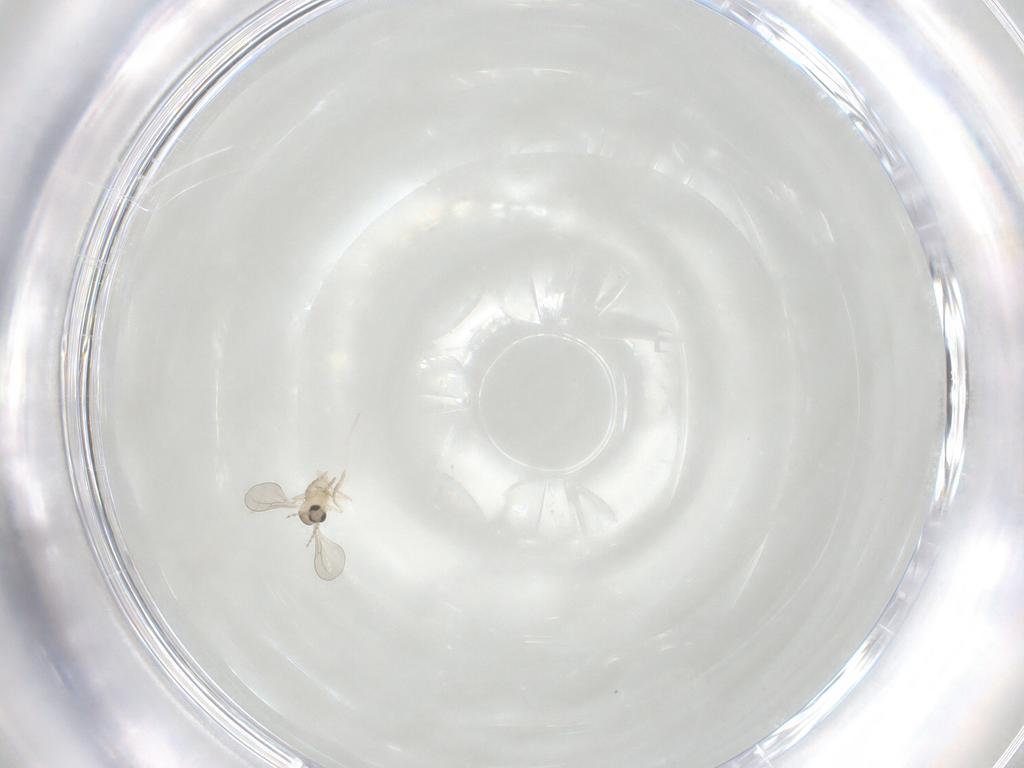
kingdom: Animalia
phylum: Arthropoda
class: Insecta
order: Diptera
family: Cecidomyiidae
